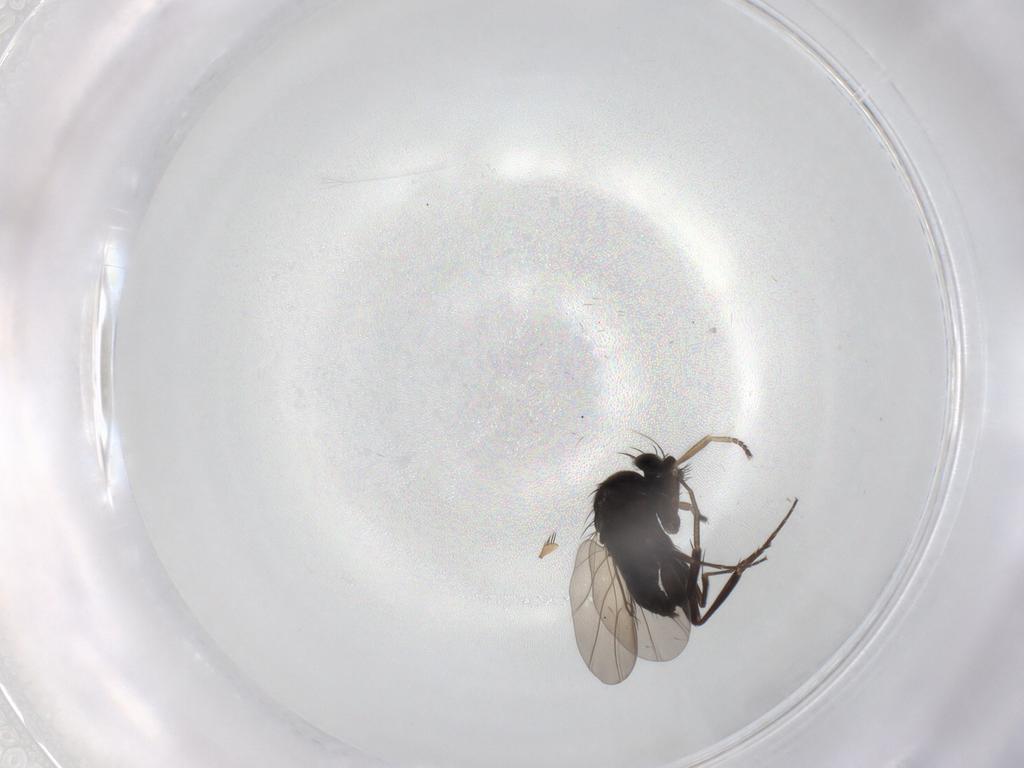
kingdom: Animalia
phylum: Arthropoda
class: Insecta
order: Diptera
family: Phoridae
